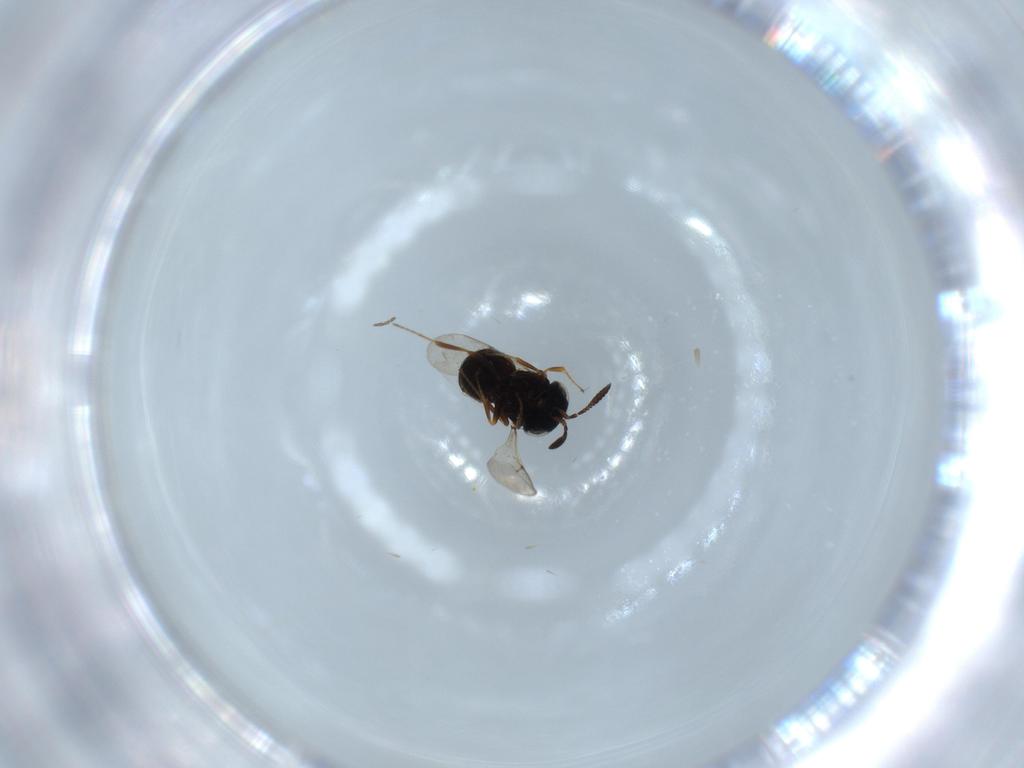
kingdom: Animalia
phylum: Arthropoda
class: Insecta
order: Hymenoptera
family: Scelionidae
